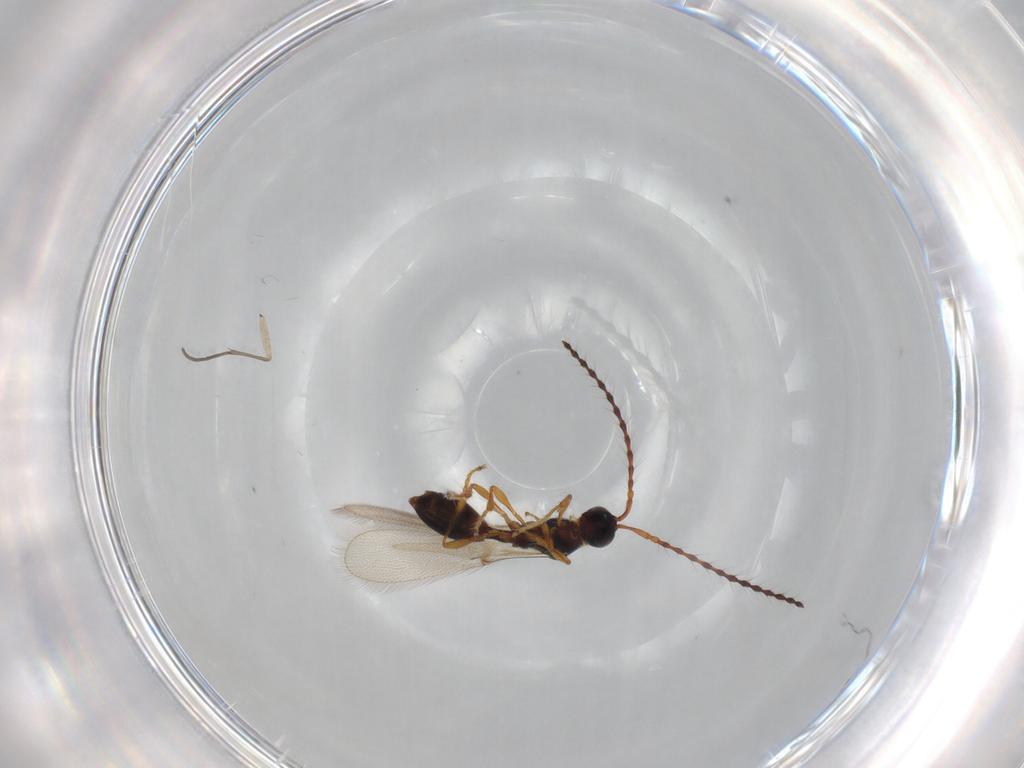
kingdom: Animalia
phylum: Arthropoda
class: Insecta
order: Hymenoptera
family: Diapriidae
